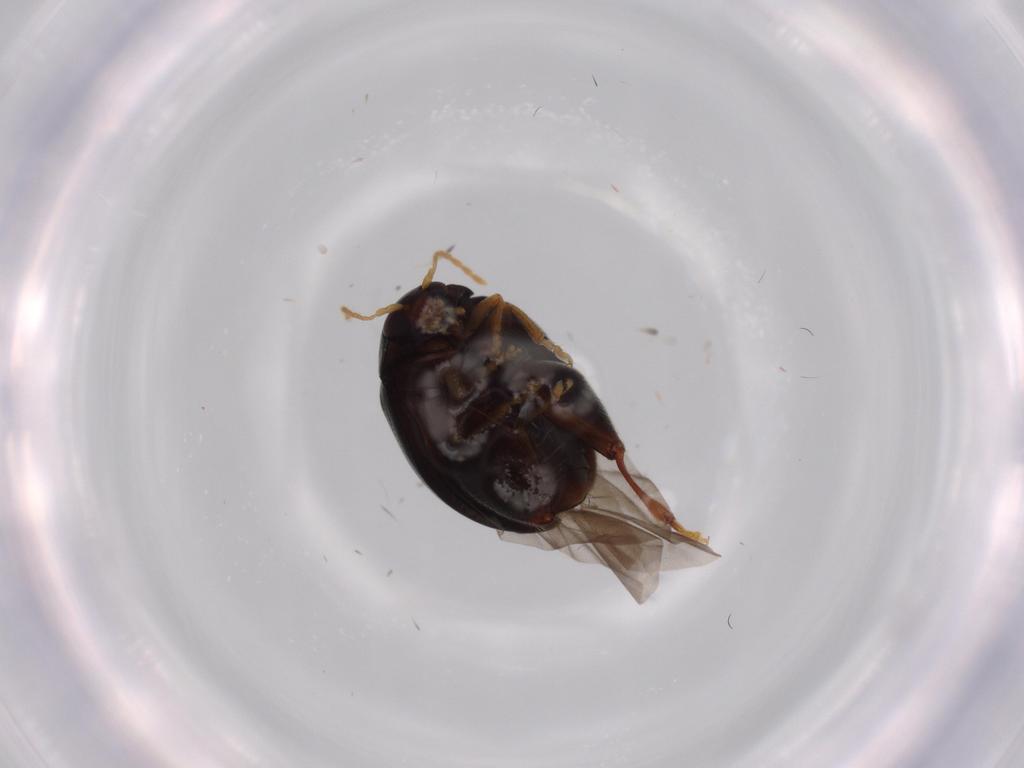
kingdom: Animalia
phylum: Arthropoda
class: Insecta
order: Coleoptera
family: Chrysomelidae
